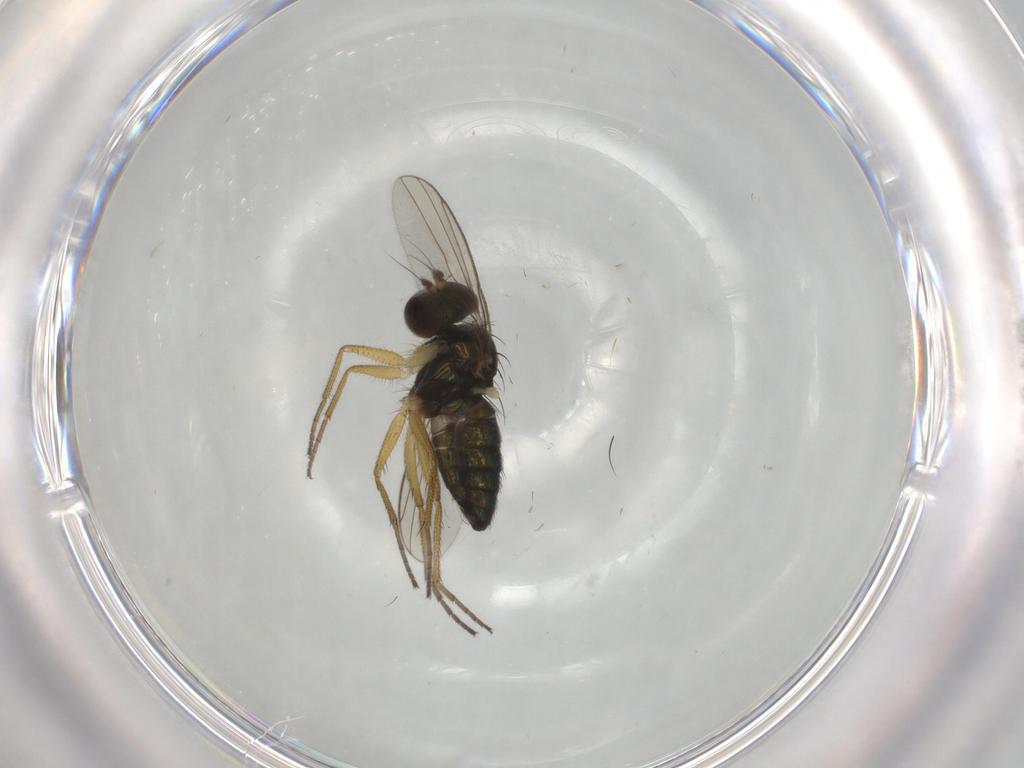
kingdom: Animalia
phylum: Arthropoda
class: Insecta
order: Diptera
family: Dolichopodidae
